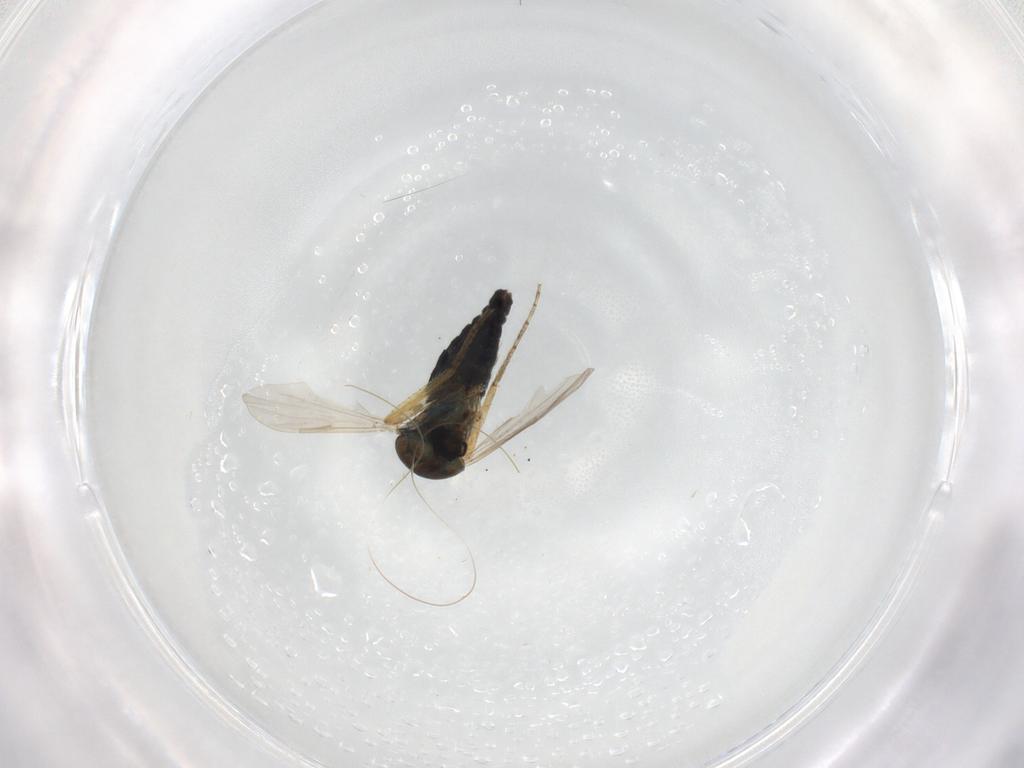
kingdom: Animalia
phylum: Arthropoda
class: Insecta
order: Diptera
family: Ceratopogonidae
